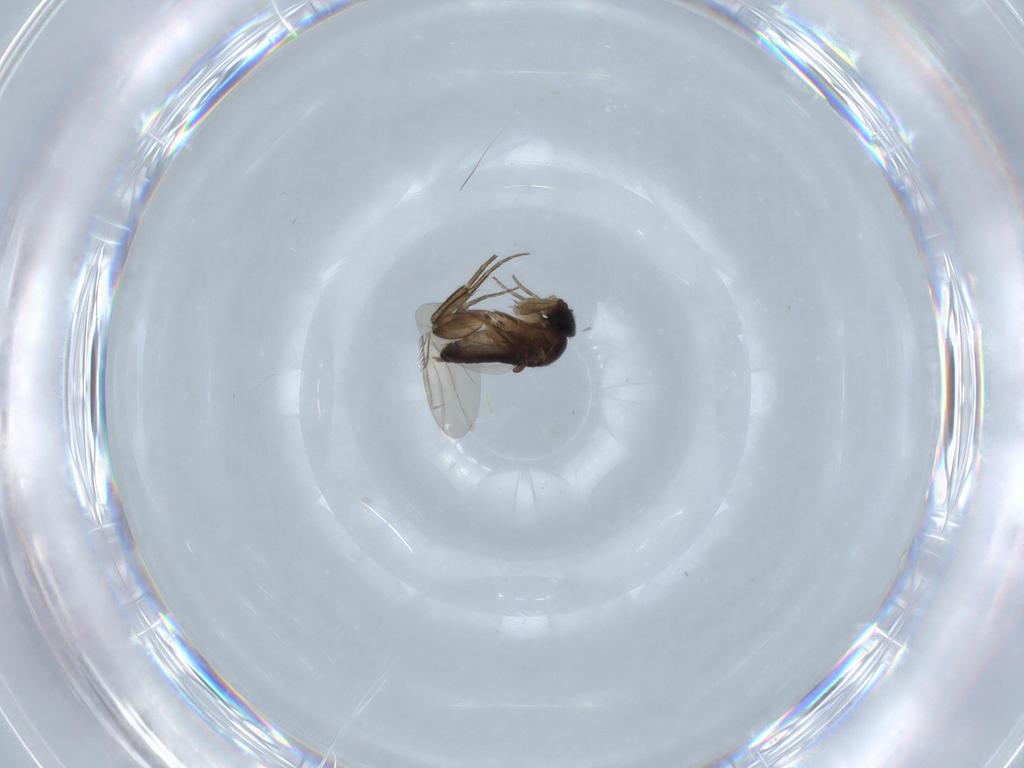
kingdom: Animalia
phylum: Arthropoda
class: Insecta
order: Diptera
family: Phoridae
